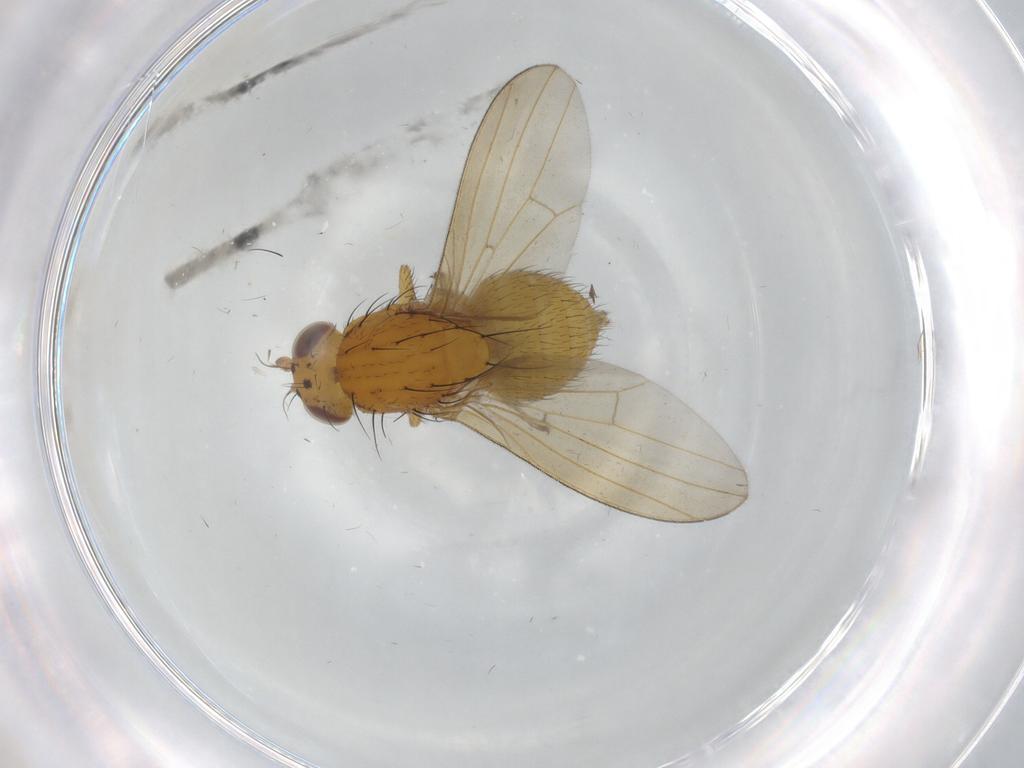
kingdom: Animalia
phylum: Arthropoda
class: Insecta
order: Diptera
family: Lauxaniidae
